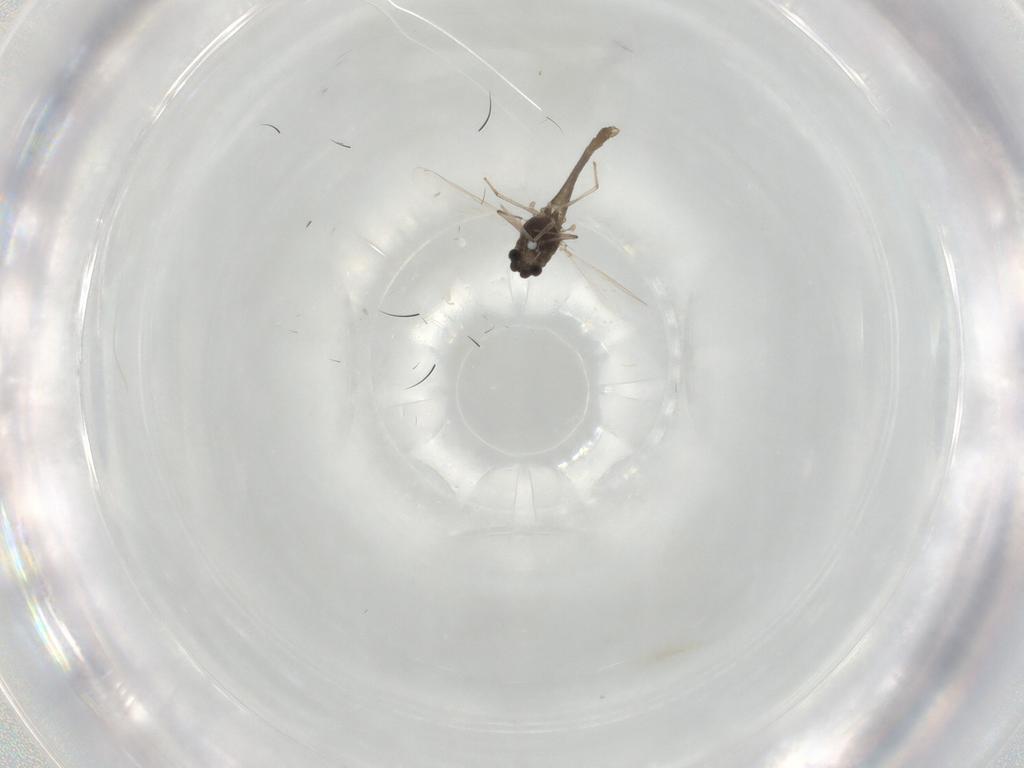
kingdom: Animalia
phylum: Arthropoda
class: Insecta
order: Diptera
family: Chironomidae
